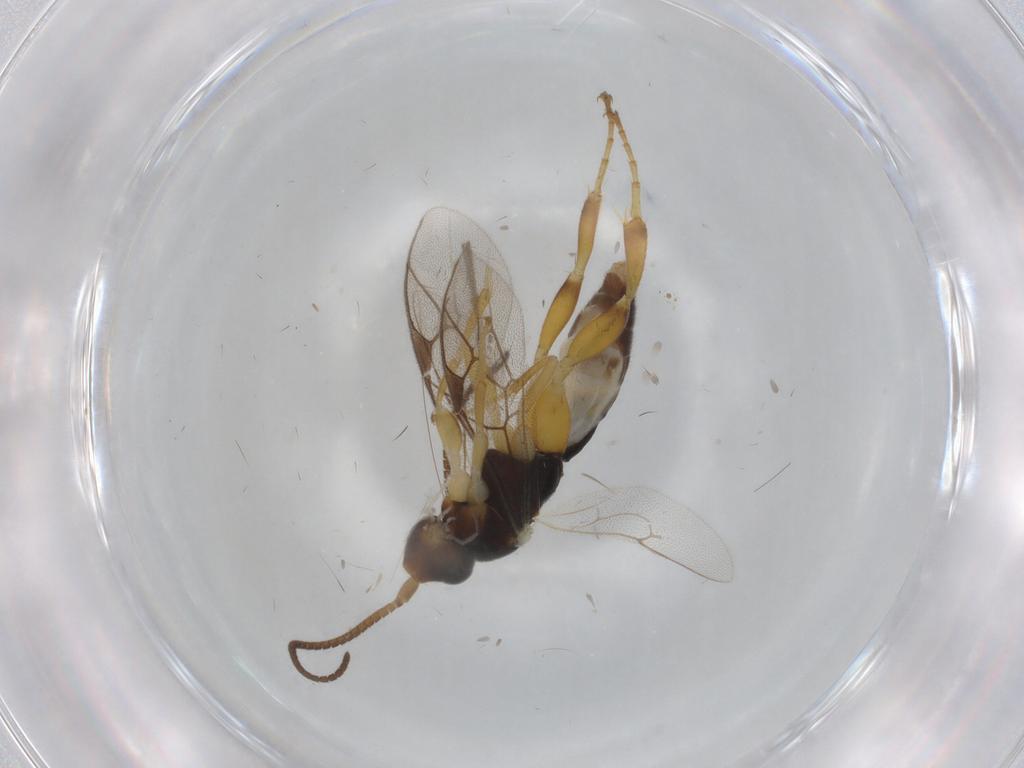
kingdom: Animalia
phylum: Arthropoda
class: Insecta
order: Hymenoptera
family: Ichneumonidae
